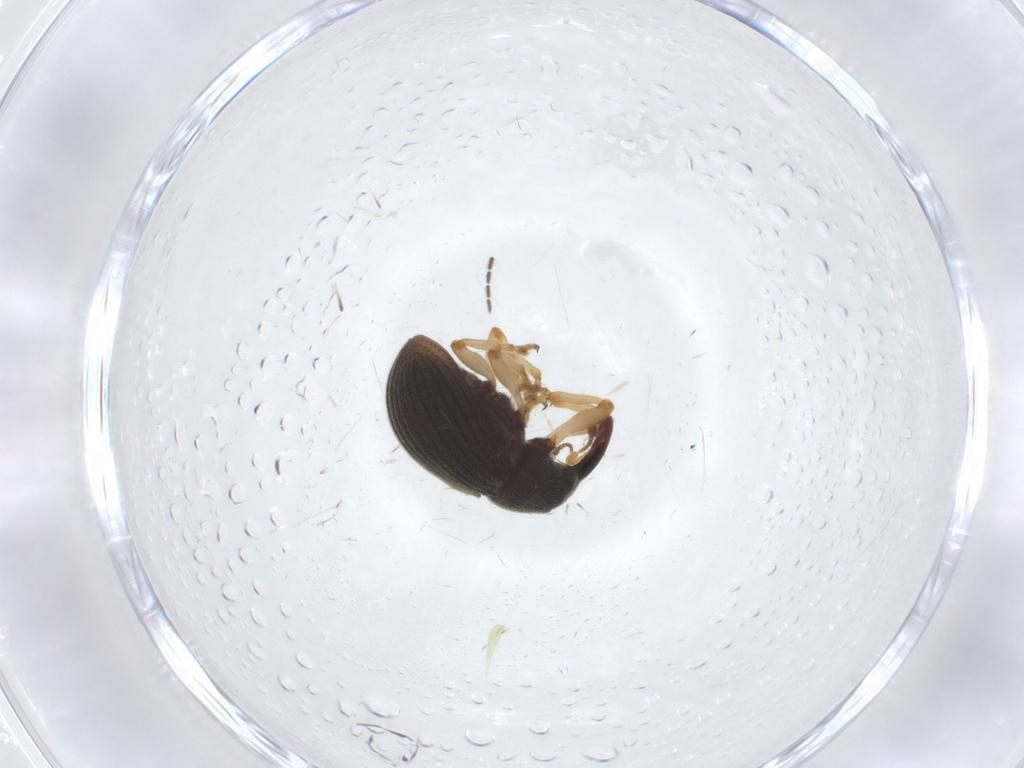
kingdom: Animalia
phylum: Arthropoda
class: Insecta
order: Coleoptera
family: Curculionidae
